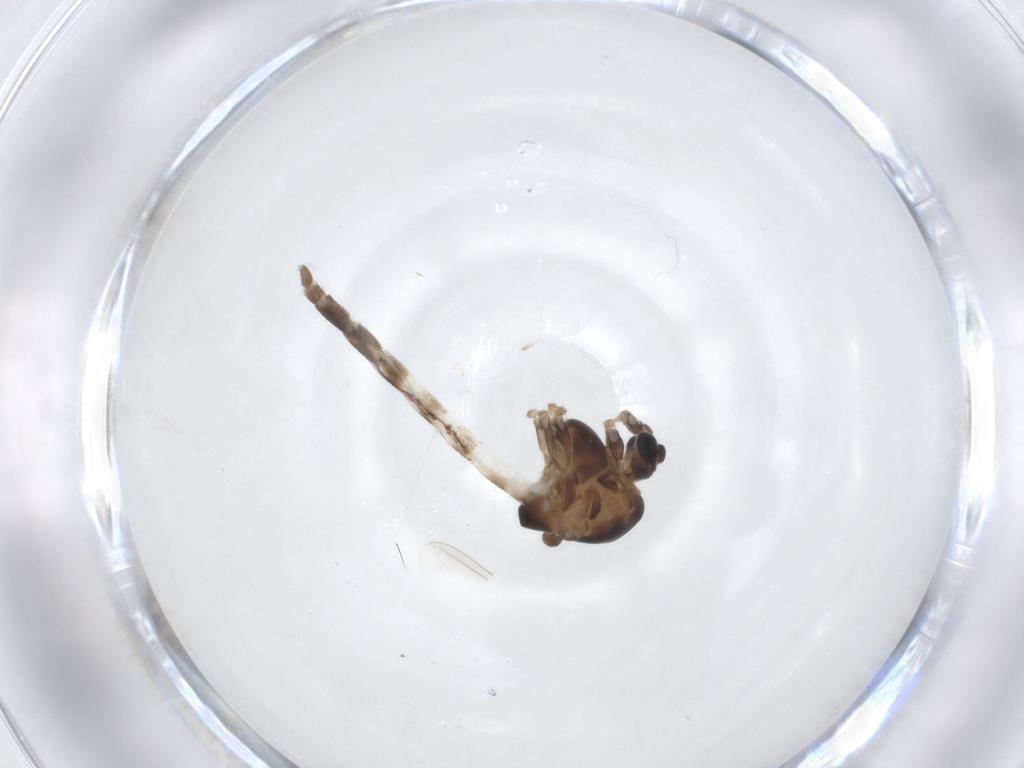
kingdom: Animalia
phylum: Arthropoda
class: Insecta
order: Diptera
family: Chironomidae
